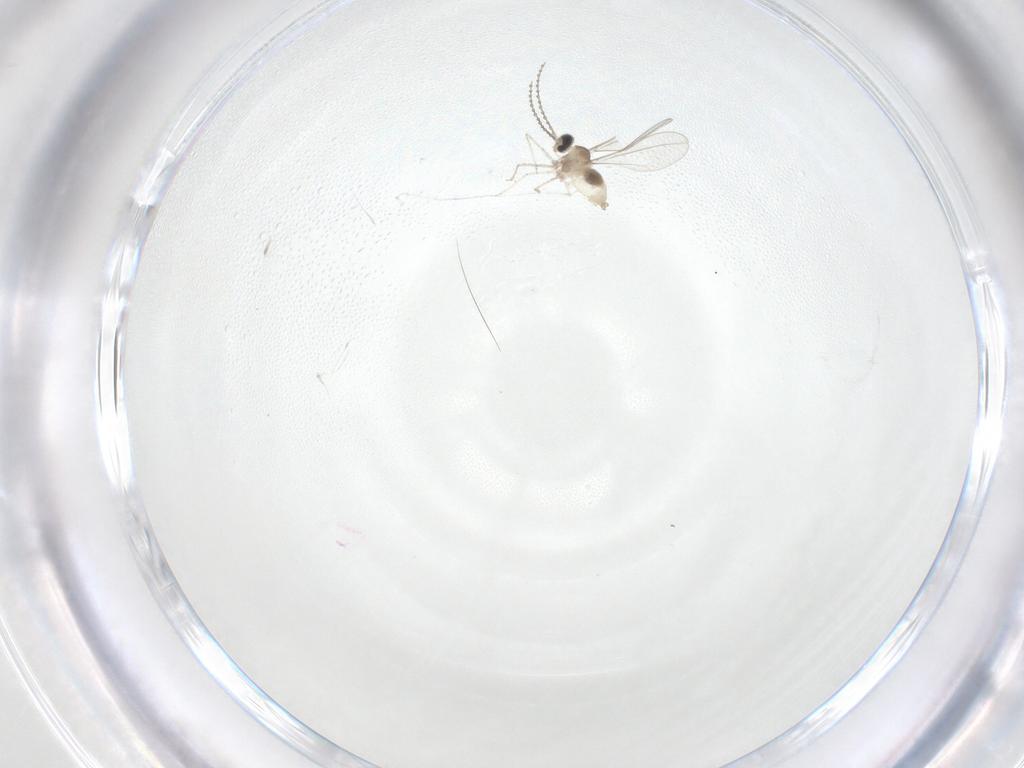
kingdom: Animalia
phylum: Arthropoda
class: Insecta
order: Diptera
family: Cecidomyiidae
